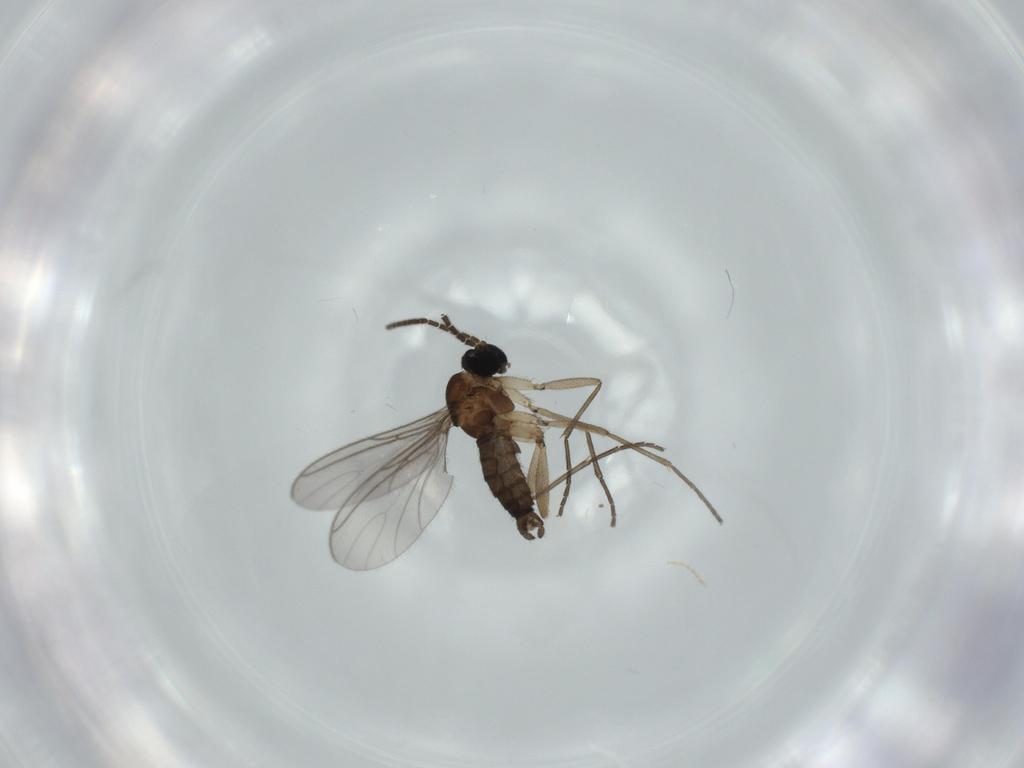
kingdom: Animalia
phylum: Arthropoda
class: Insecta
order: Diptera
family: Sciaridae
